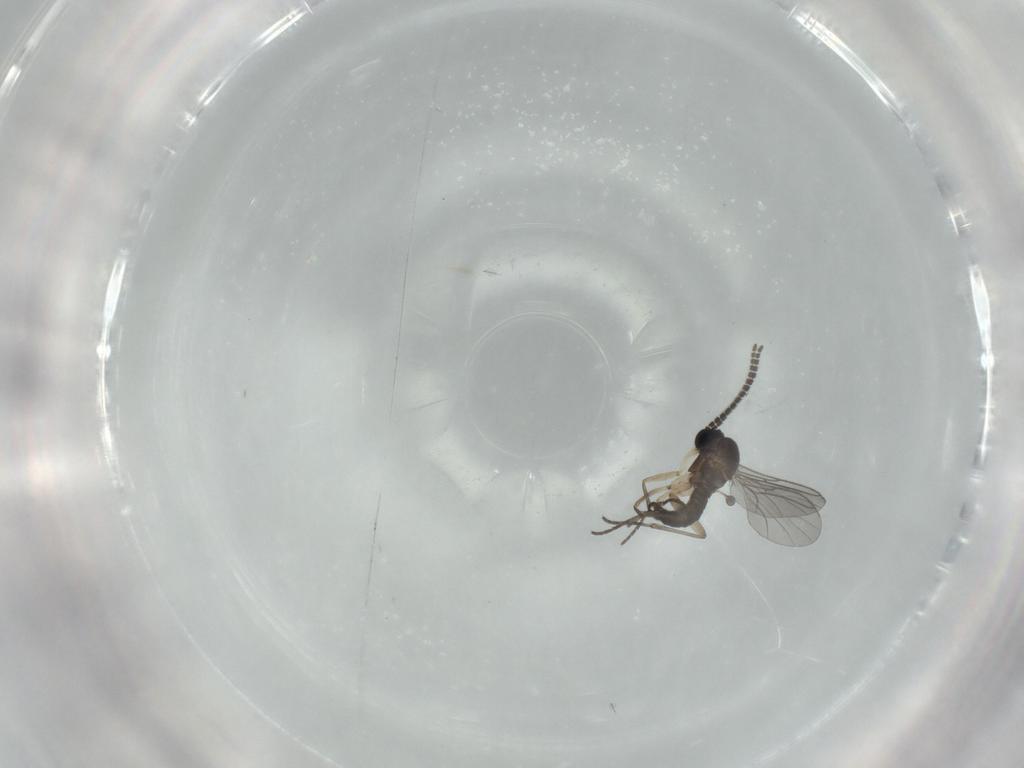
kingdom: Animalia
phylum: Arthropoda
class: Insecta
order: Diptera
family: Sciaridae
